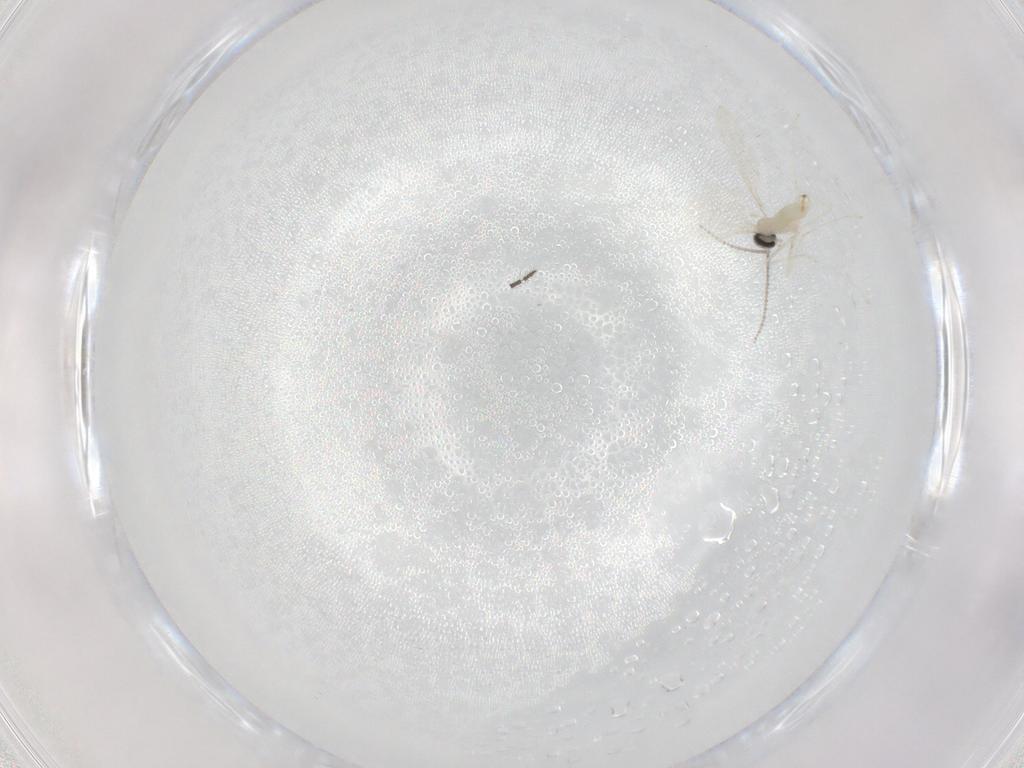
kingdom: Animalia
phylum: Arthropoda
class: Insecta
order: Diptera
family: Cecidomyiidae
